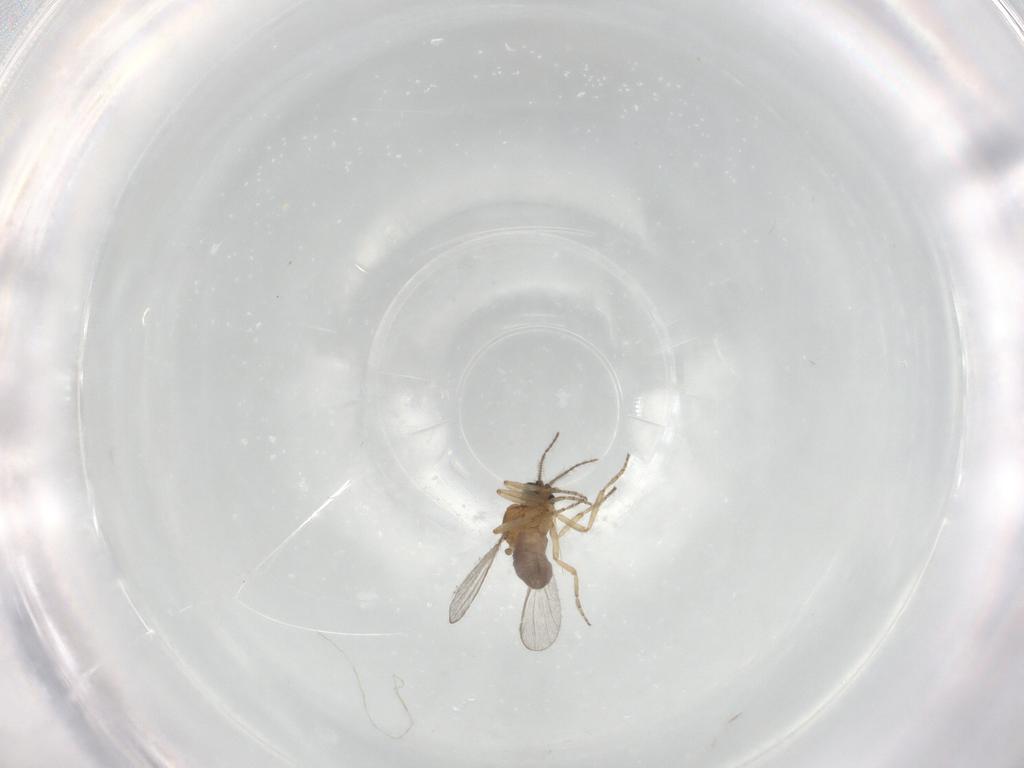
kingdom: Animalia
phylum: Arthropoda
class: Insecta
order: Diptera
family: Ceratopogonidae
